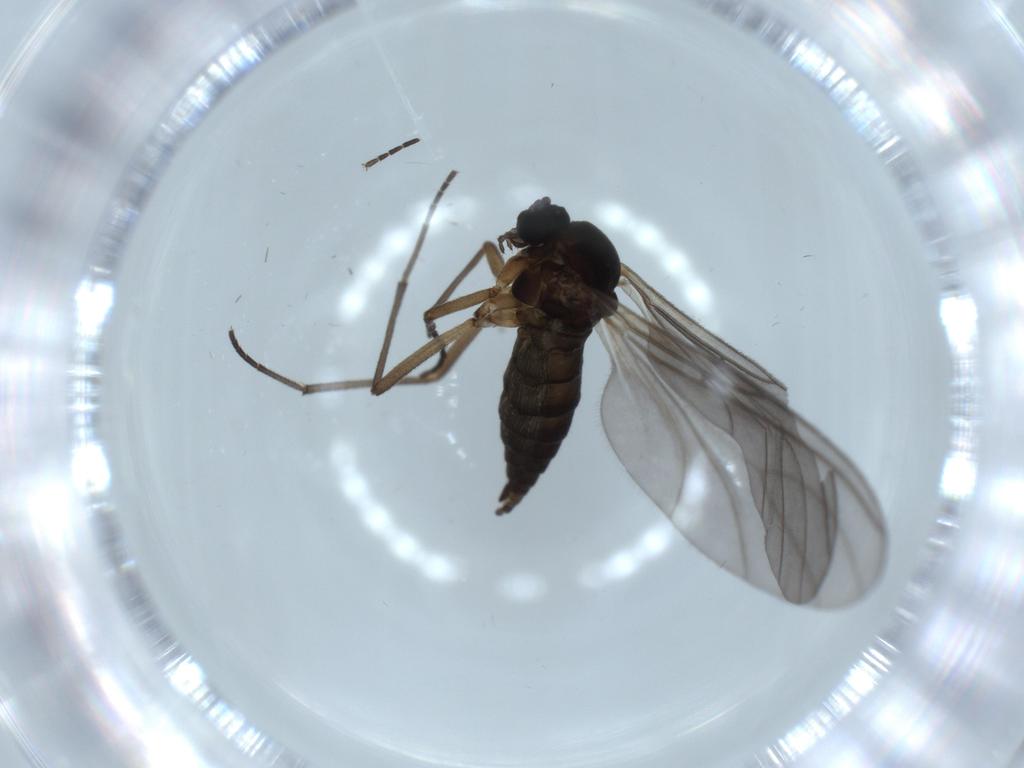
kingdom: Animalia
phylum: Arthropoda
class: Insecta
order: Diptera
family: Sciaridae
